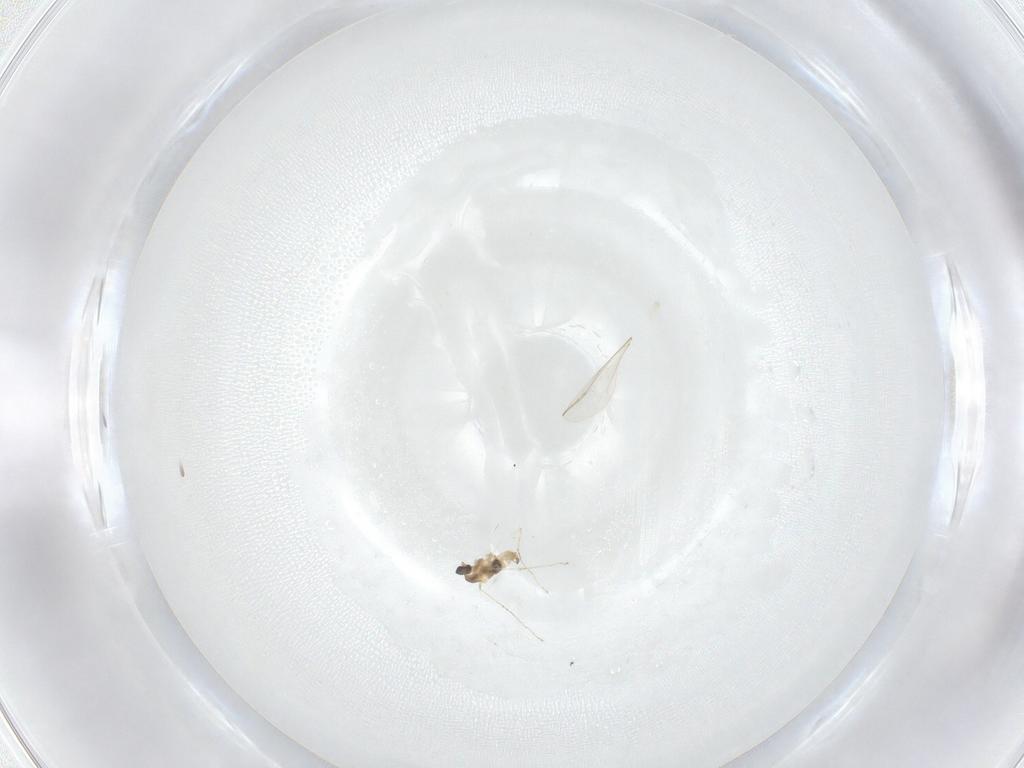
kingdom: Animalia
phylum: Arthropoda
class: Insecta
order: Diptera
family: Cecidomyiidae
